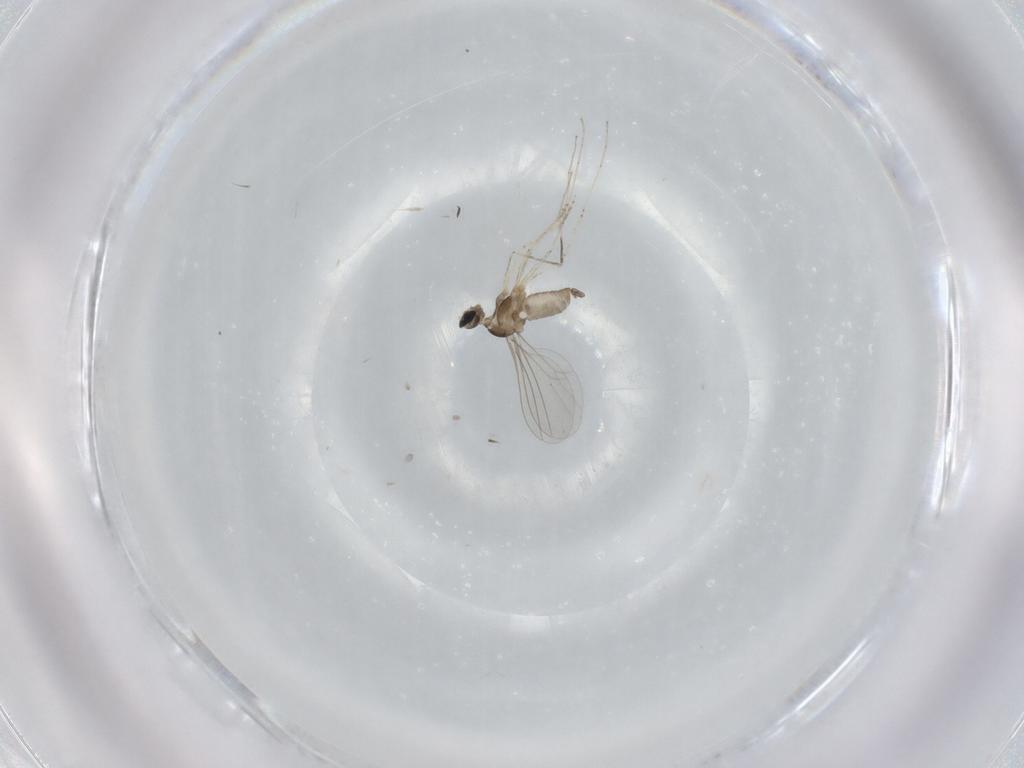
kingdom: Animalia
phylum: Arthropoda
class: Insecta
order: Diptera
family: Cecidomyiidae
